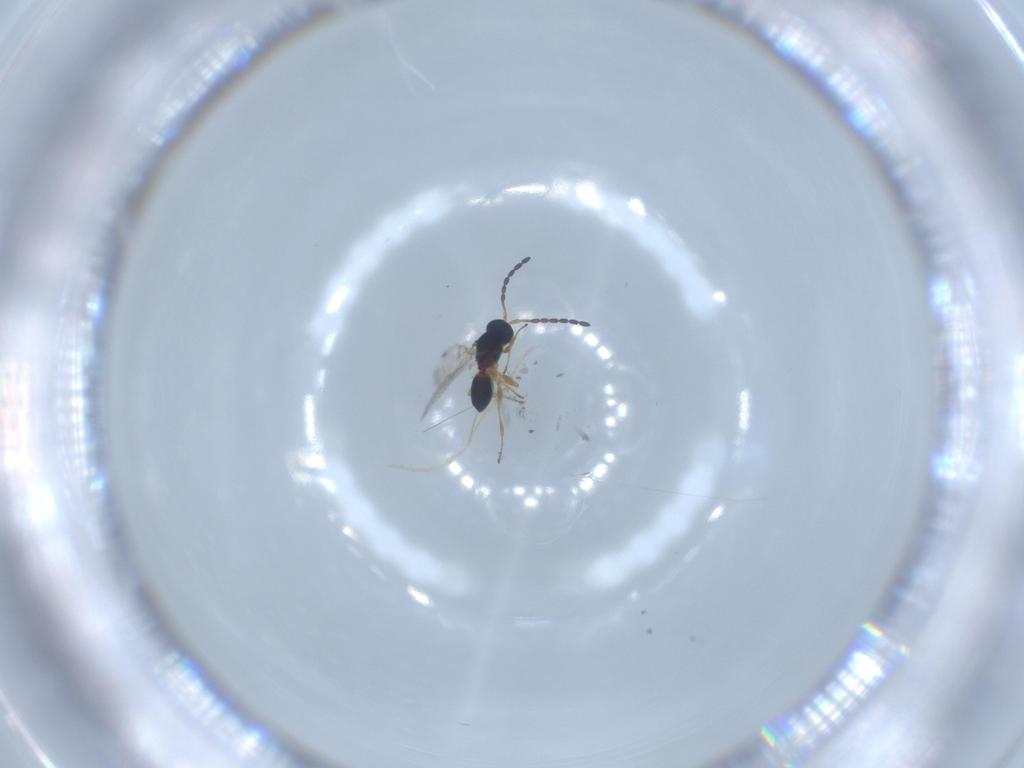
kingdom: Animalia
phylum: Arthropoda
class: Insecta
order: Hymenoptera
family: Figitidae
